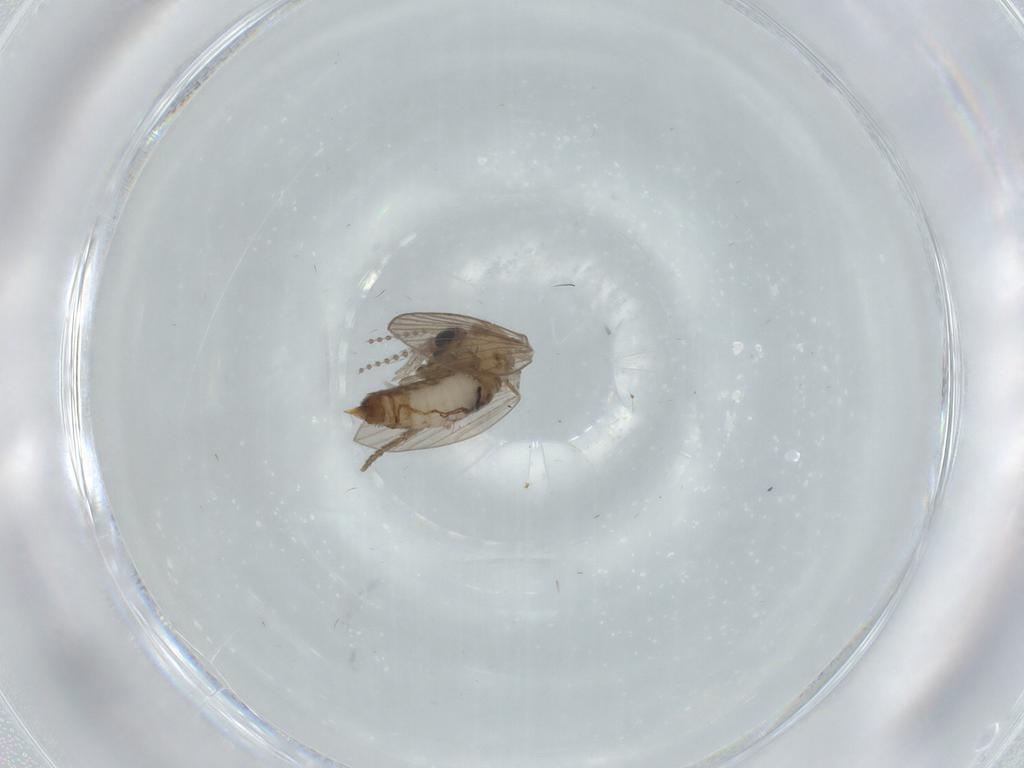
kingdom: Animalia
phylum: Arthropoda
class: Insecta
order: Diptera
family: Psychodidae
